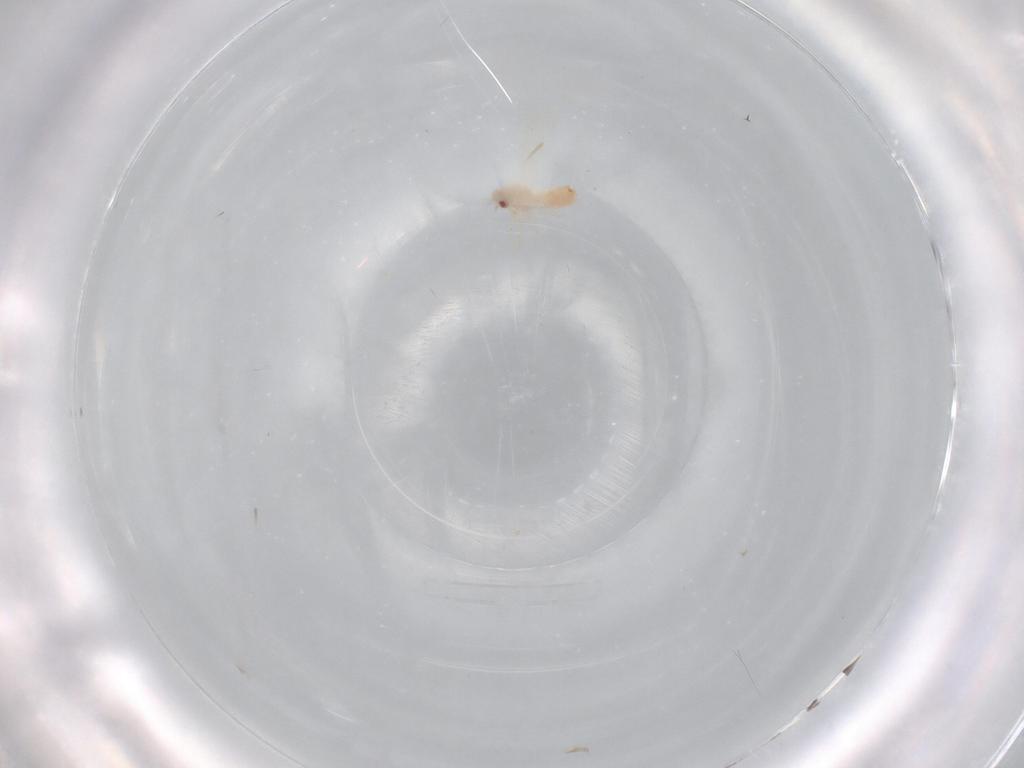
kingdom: Animalia
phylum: Arthropoda
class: Insecta
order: Hemiptera
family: Aleyrodidae
